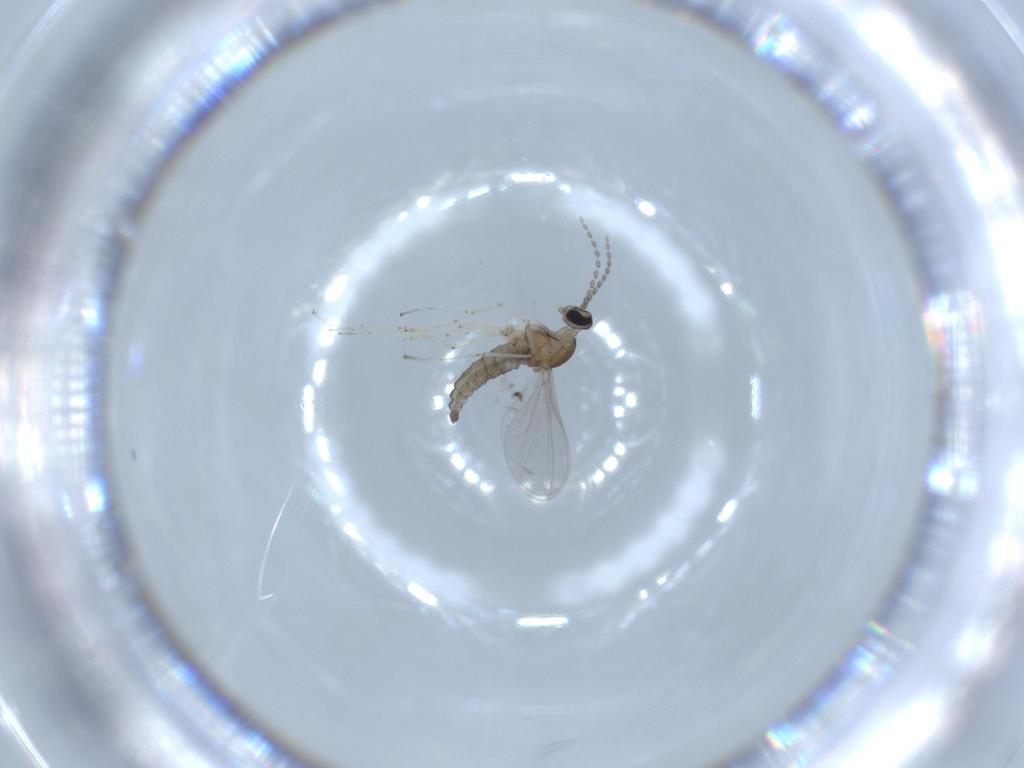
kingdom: Animalia
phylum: Arthropoda
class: Insecta
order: Diptera
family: Cecidomyiidae
